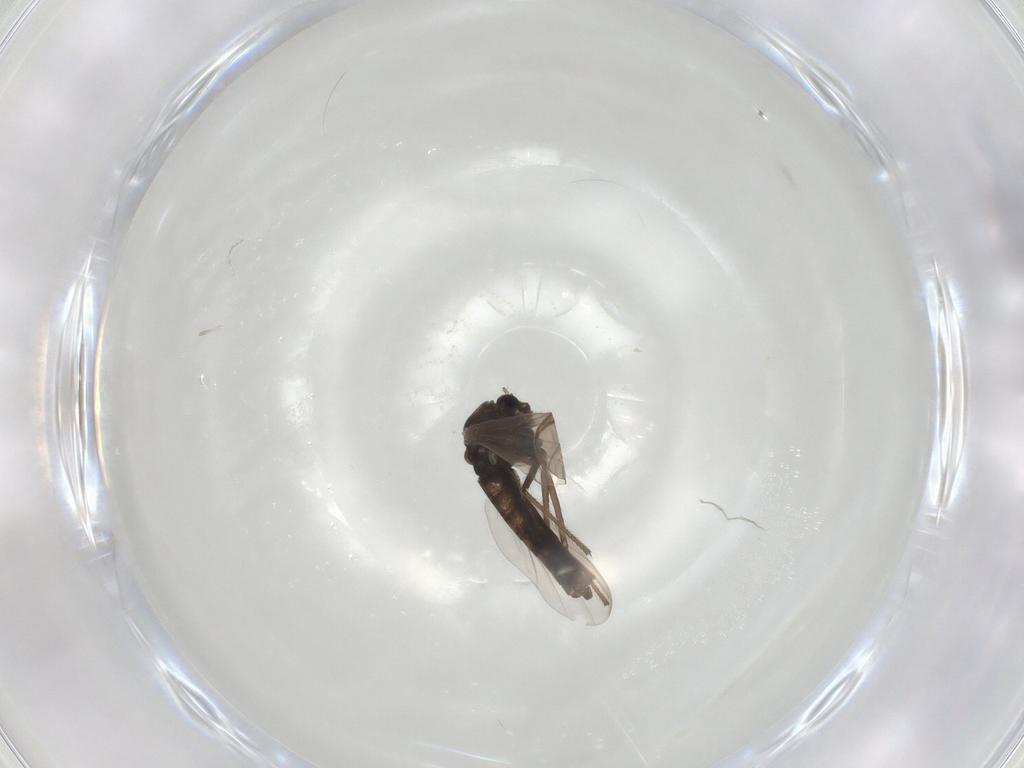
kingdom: Animalia
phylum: Arthropoda
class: Insecta
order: Diptera
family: Chironomidae
